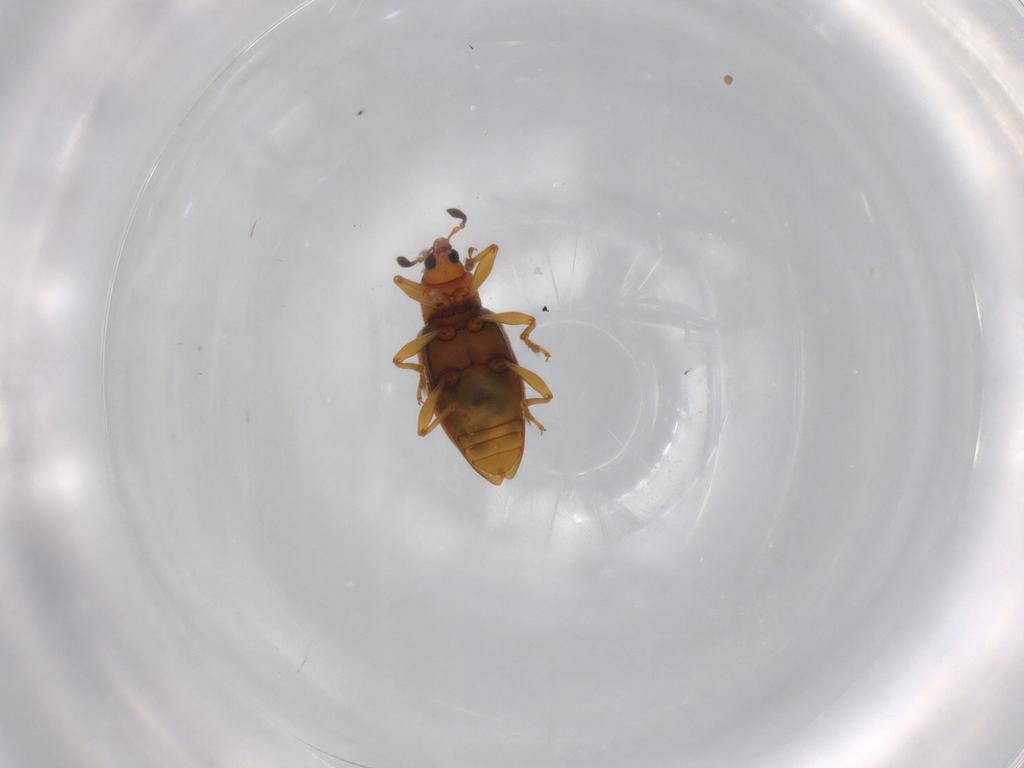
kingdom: Animalia
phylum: Arthropoda
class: Insecta
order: Coleoptera
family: Curculionidae
